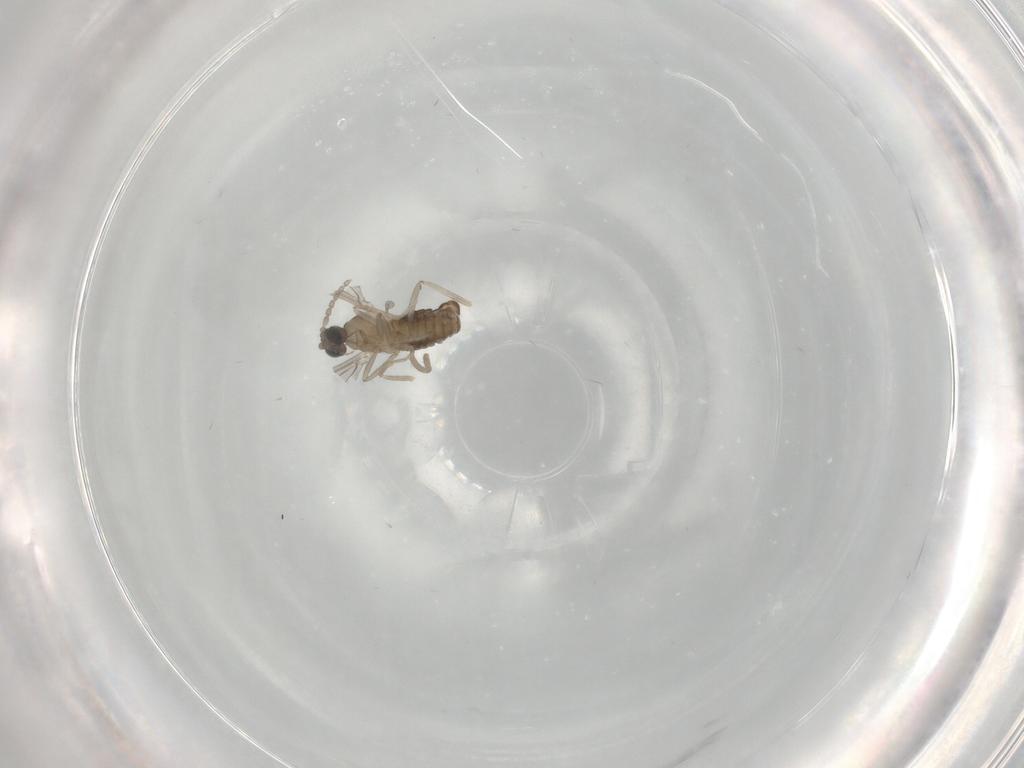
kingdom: Animalia
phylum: Arthropoda
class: Insecta
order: Diptera
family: Cecidomyiidae
